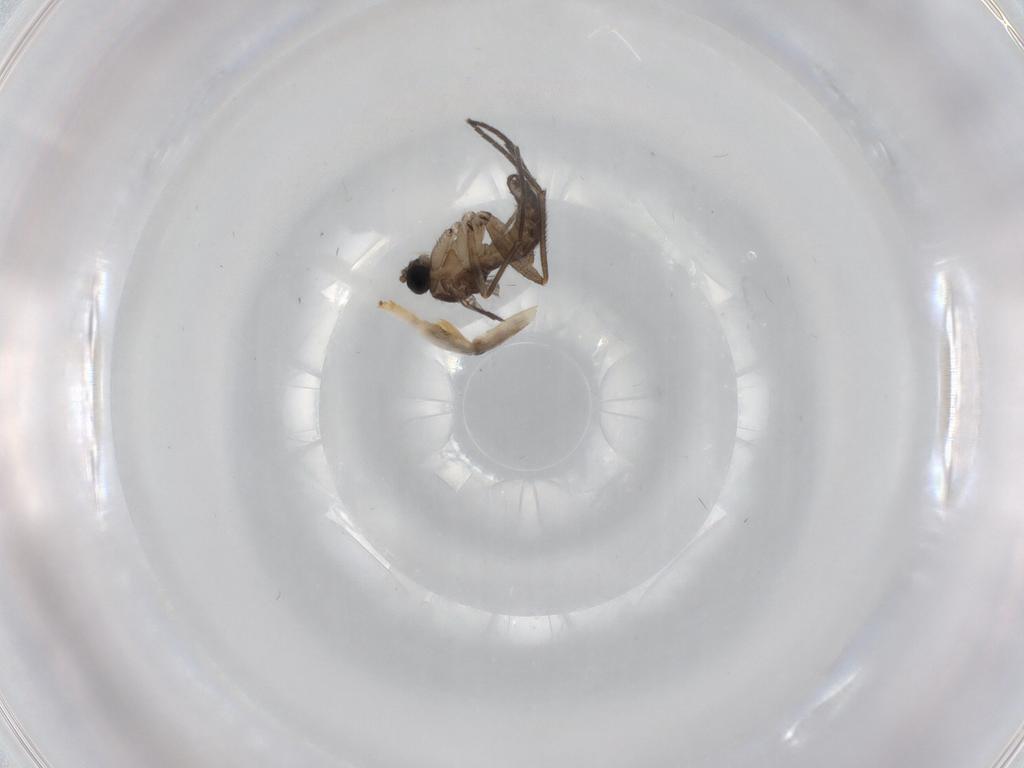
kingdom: Animalia
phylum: Arthropoda
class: Insecta
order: Diptera
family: Sciaridae
